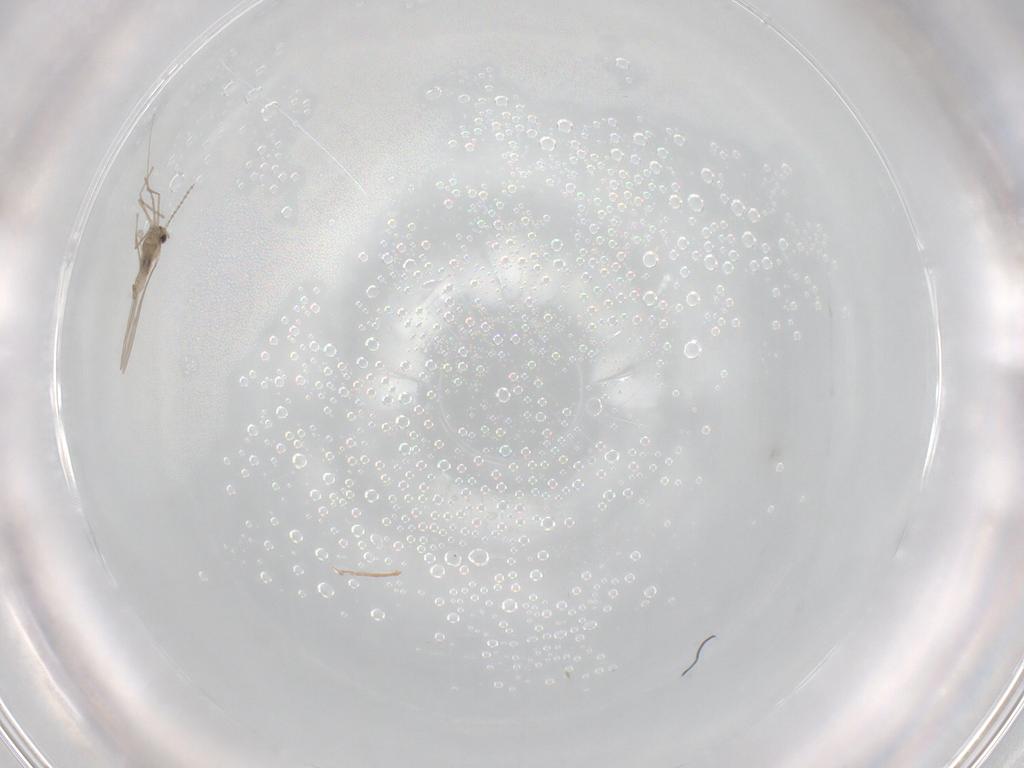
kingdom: Animalia
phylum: Arthropoda
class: Insecta
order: Diptera
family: Cecidomyiidae
